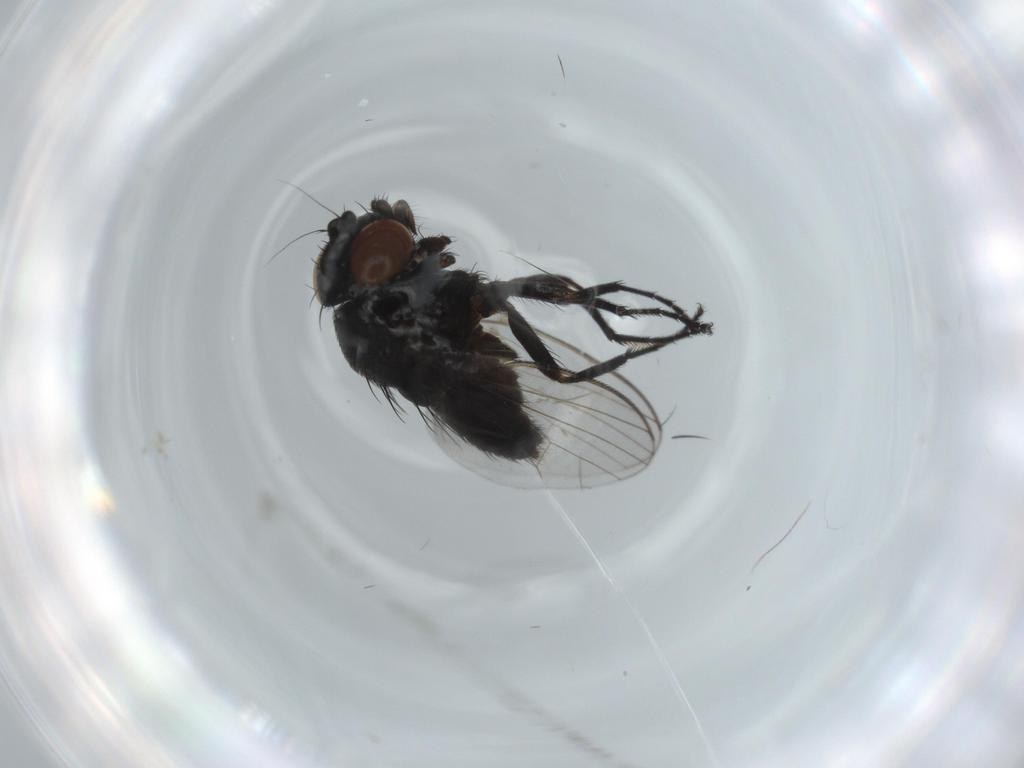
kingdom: Animalia
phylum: Arthropoda
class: Insecta
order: Diptera
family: Milichiidae
